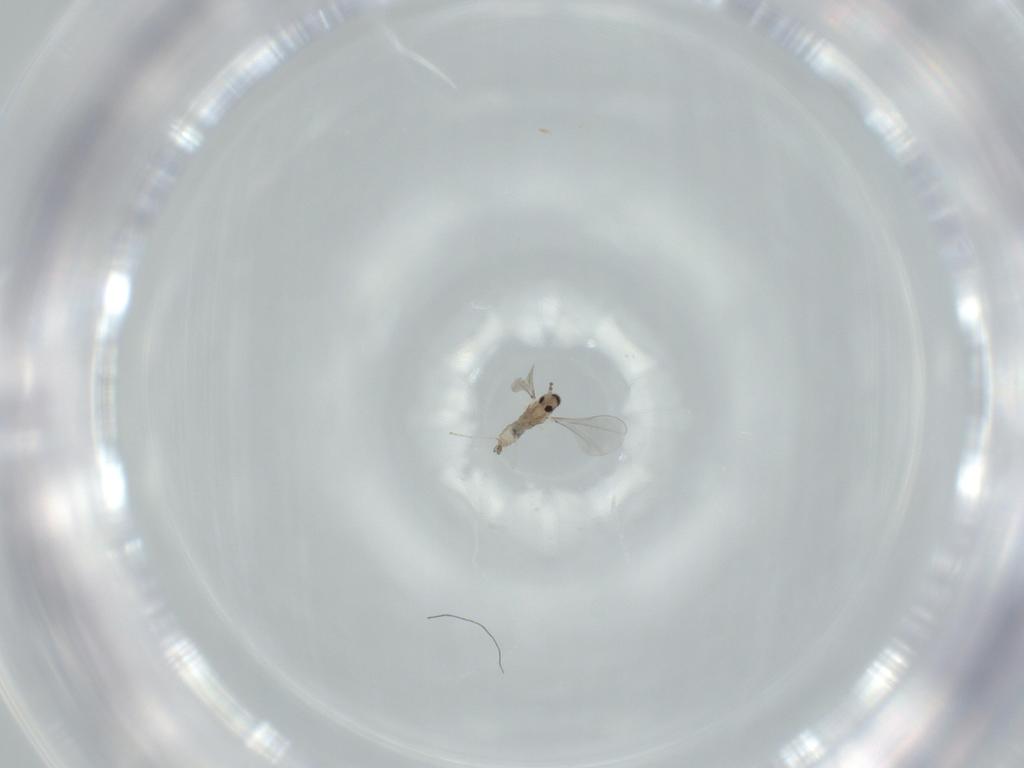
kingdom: Animalia
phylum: Arthropoda
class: Insecta
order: Diptera
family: Cecidomyiidae
